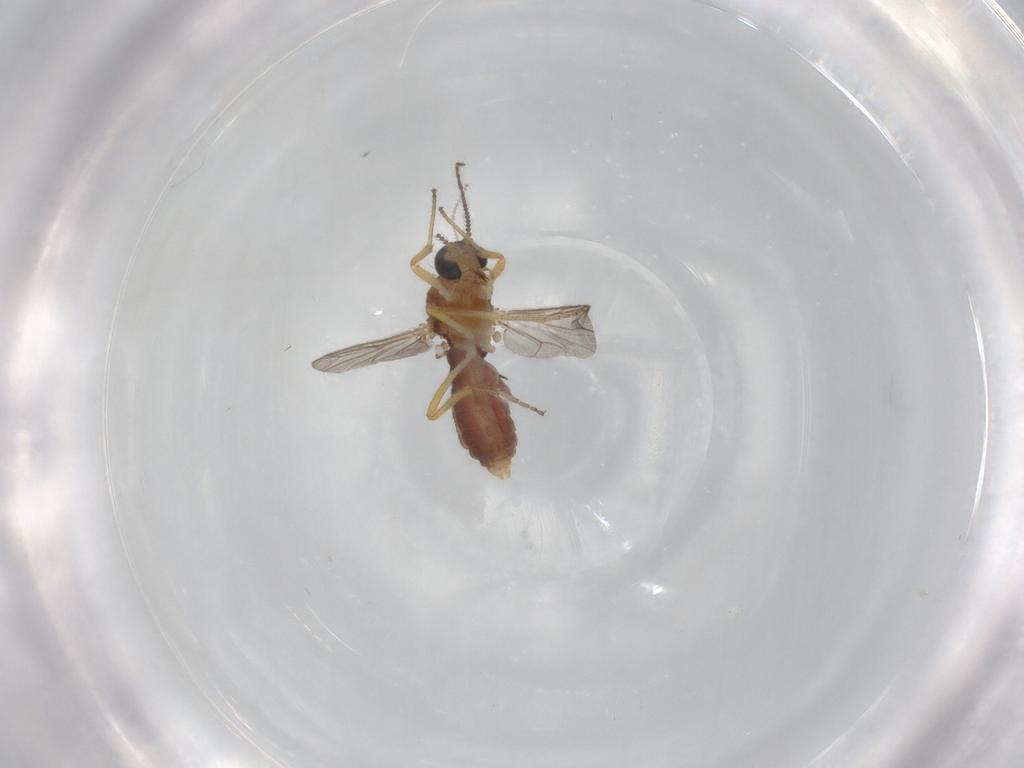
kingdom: Animalia
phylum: Arthropoda
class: Insecta
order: Diptera
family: Ceratopogonidae
